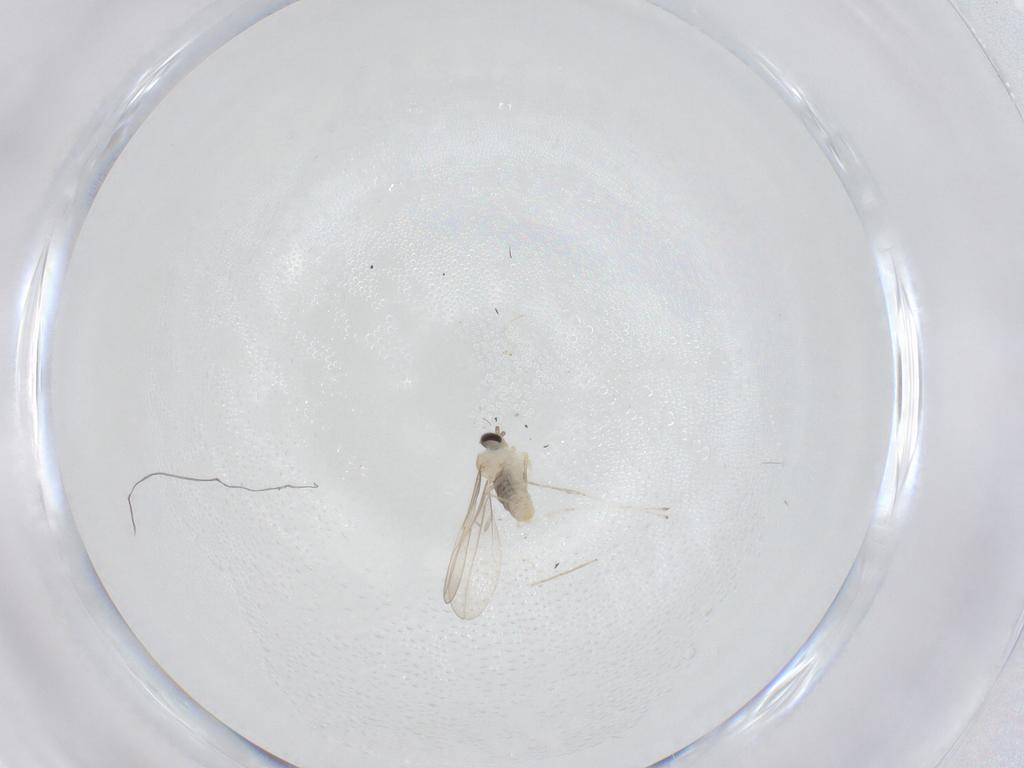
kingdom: Animalia
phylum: Arthropoda
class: Insecta
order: Diptera
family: Cecidomyiidae
